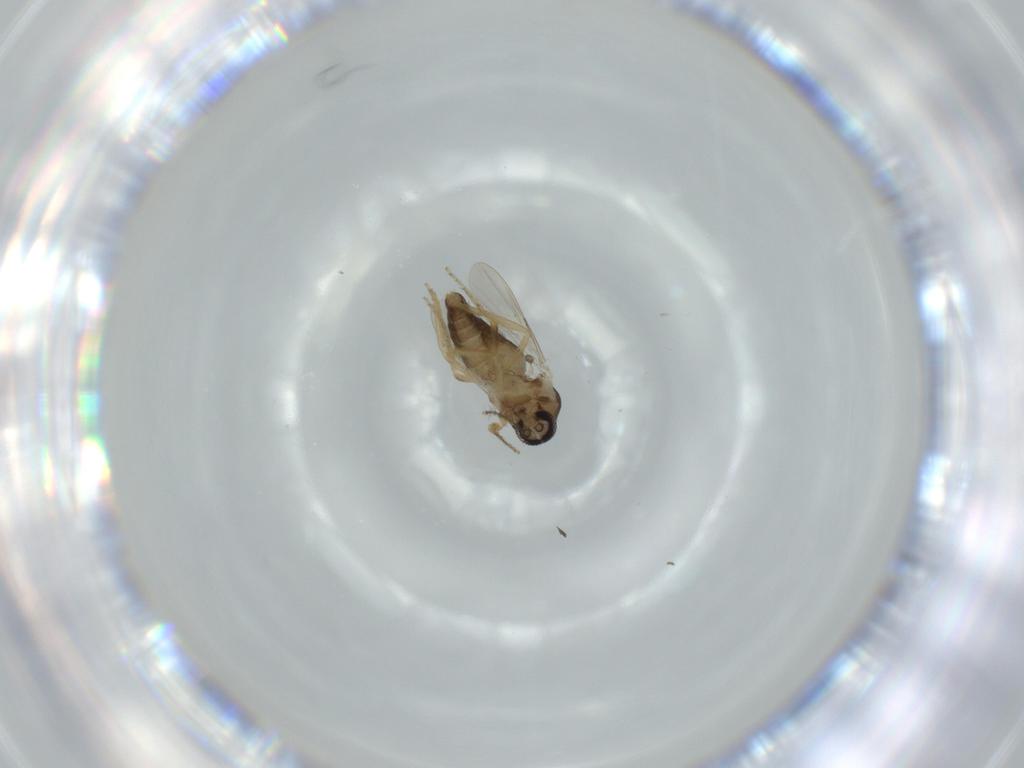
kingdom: Animalia
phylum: Arthropoda
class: Insecta
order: Diptera
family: Ceratopogonidae
